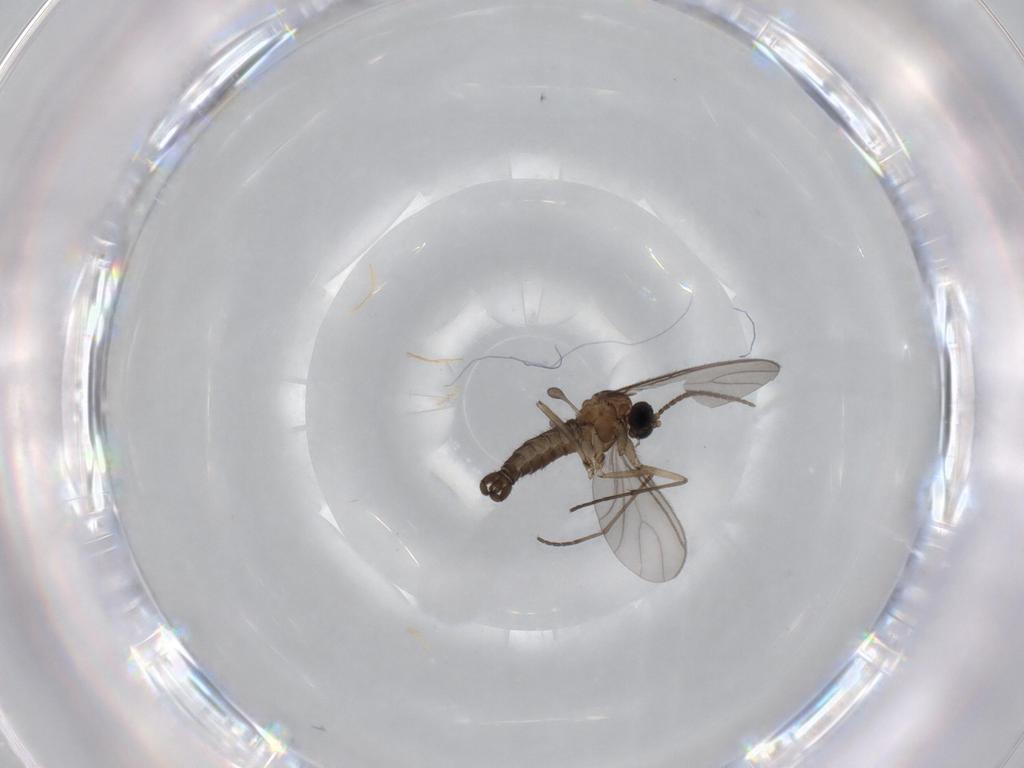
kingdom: Animalia
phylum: Arthropoda
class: Insecta
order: Diptera
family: Sciaridae
